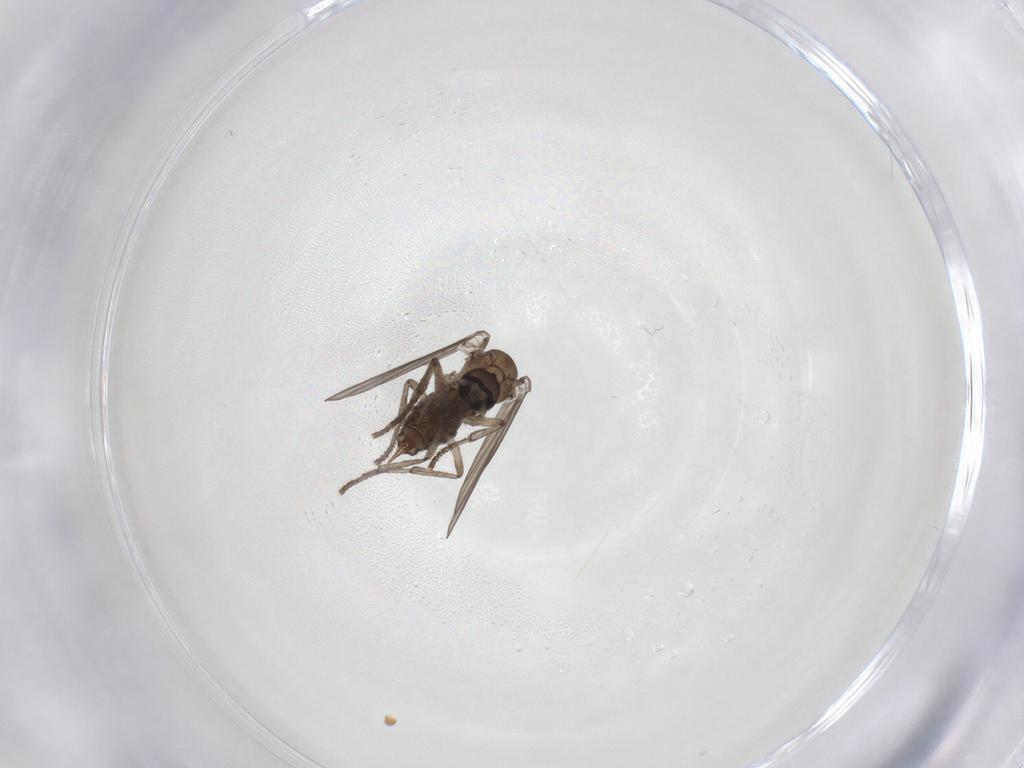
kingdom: Animalia
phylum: Arthropoda
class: Insecta
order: Diptera
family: Psychodidae
